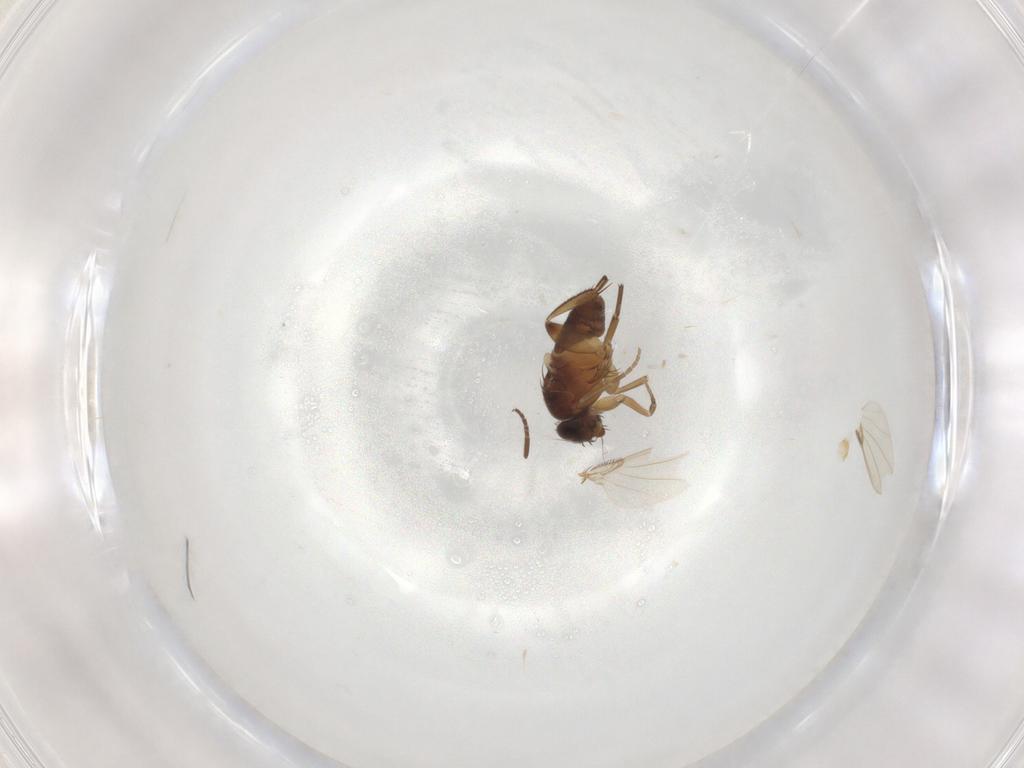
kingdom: Animalia
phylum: Arthropoda
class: Insecta
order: Diptera
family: Phoridae
